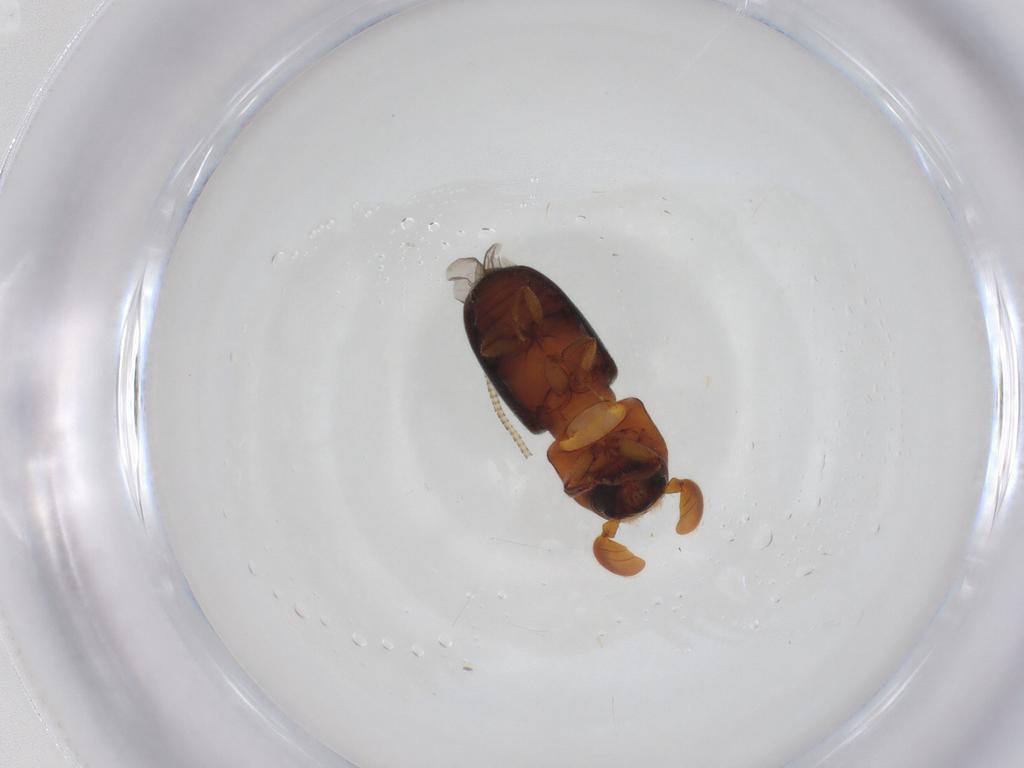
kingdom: Animalia
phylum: Arthropoda
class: Insecta
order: Coleoptera
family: Curculionidae
